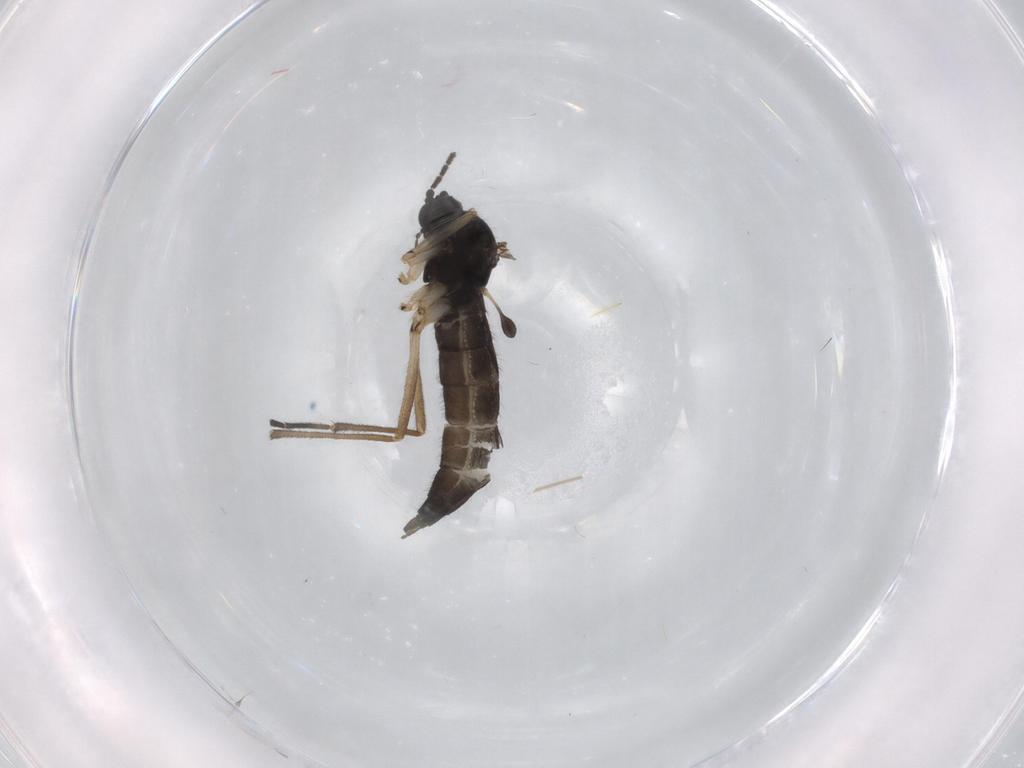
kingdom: Animalia
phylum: Arthropoda
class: Insecta
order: Diptera
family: Sciaridae
